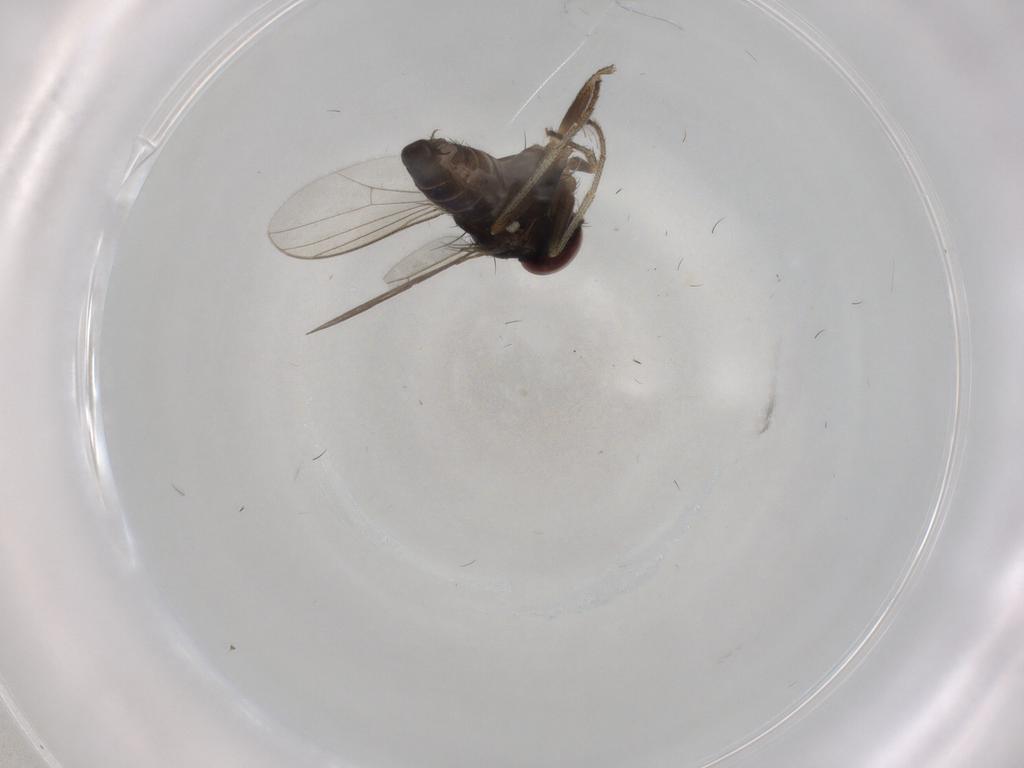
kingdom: Animalia
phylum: Arthropoda
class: Insecta
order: Diptera
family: Dolichopodidae
